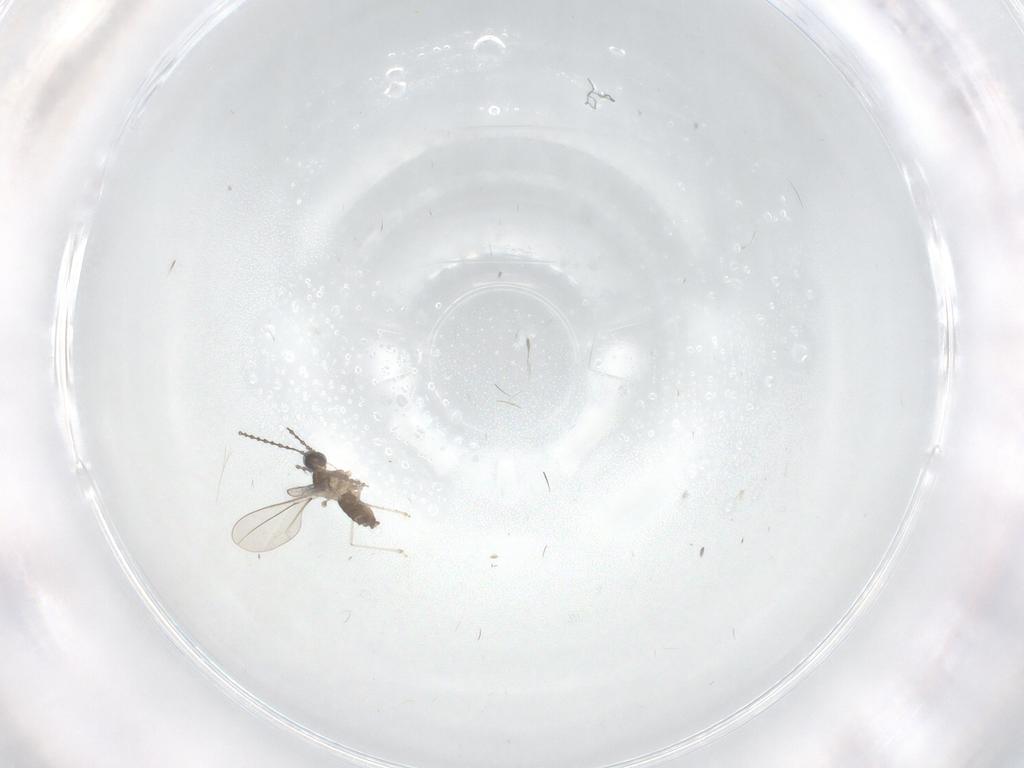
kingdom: Animalia
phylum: Arthropoda
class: Insecta
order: Diptera
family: Cecidomyiidae
